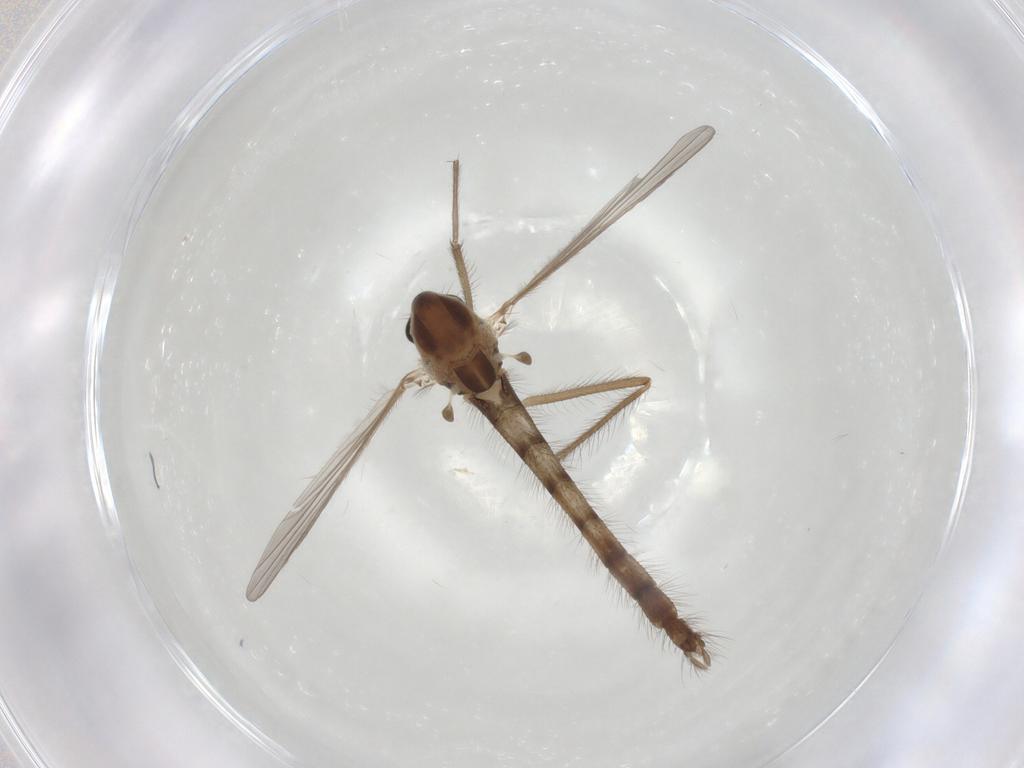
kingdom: Animalia
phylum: Arthropoda
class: Insecta
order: Diptera
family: Chironomidae
